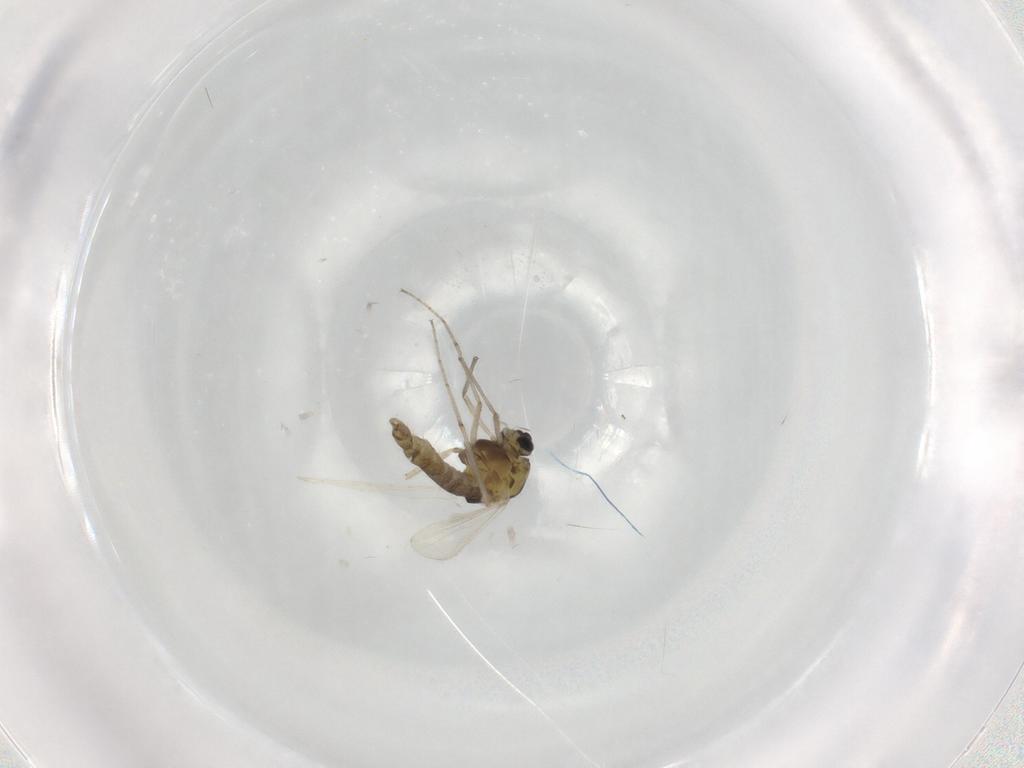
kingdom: Animalia
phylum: Arthropoda
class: Insecta
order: Diptera
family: Chironomidae
